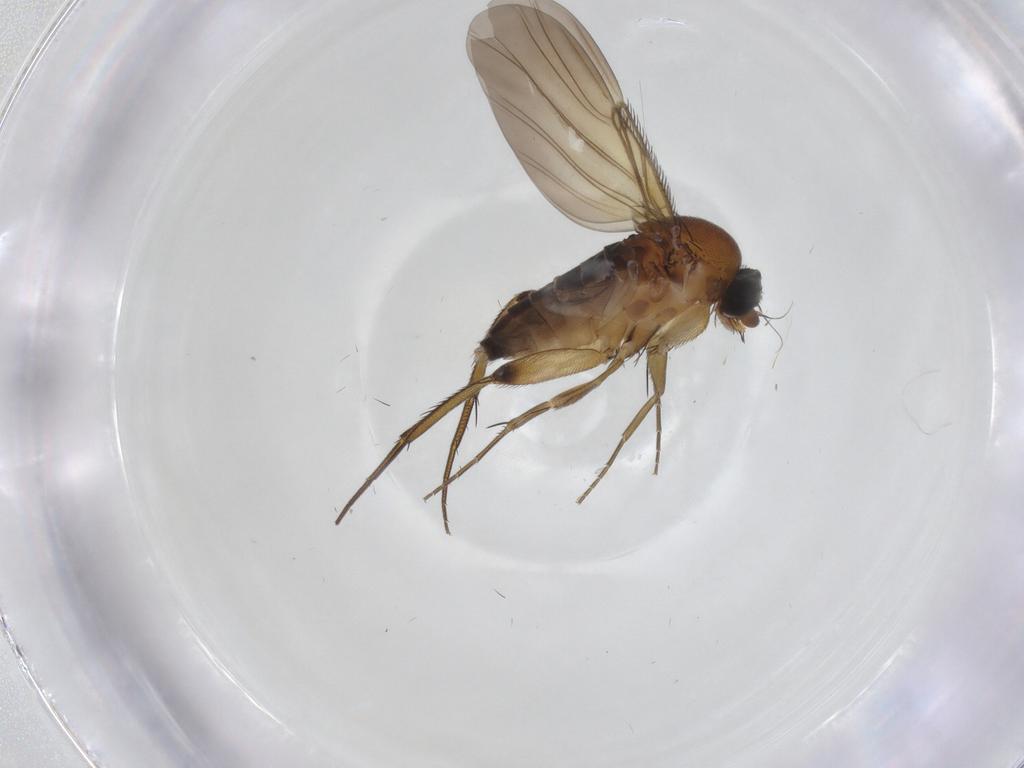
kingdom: Animalia
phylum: Arthropoda
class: Insecta
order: Diptera
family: Phoridae
